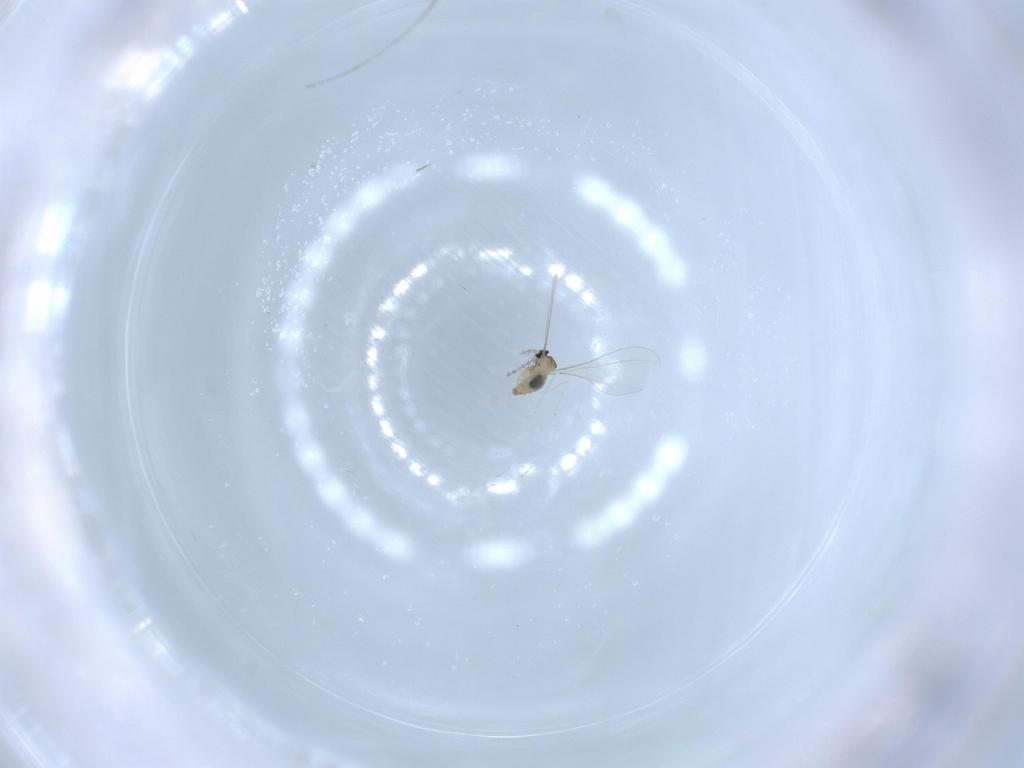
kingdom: Animalia
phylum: Arthropoda
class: Insecta
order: Diptera
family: Cecidomyiidae
